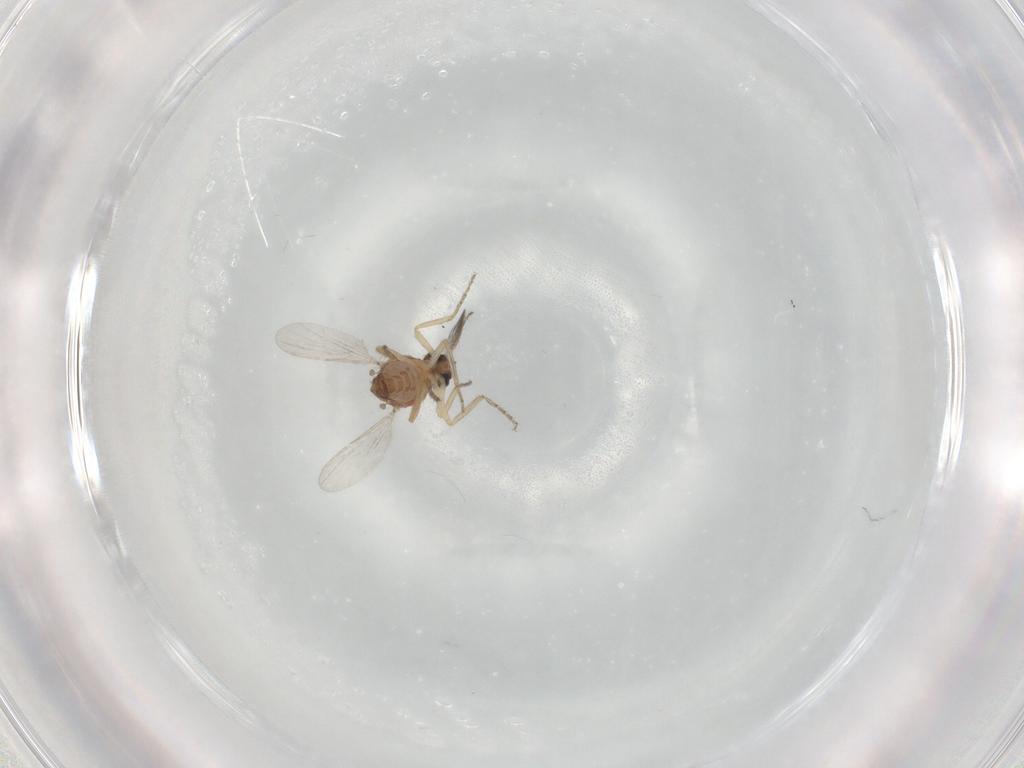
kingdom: Animalia
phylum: Arthropoda
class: Insecta
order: Diptera
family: Ceratopogonidae
